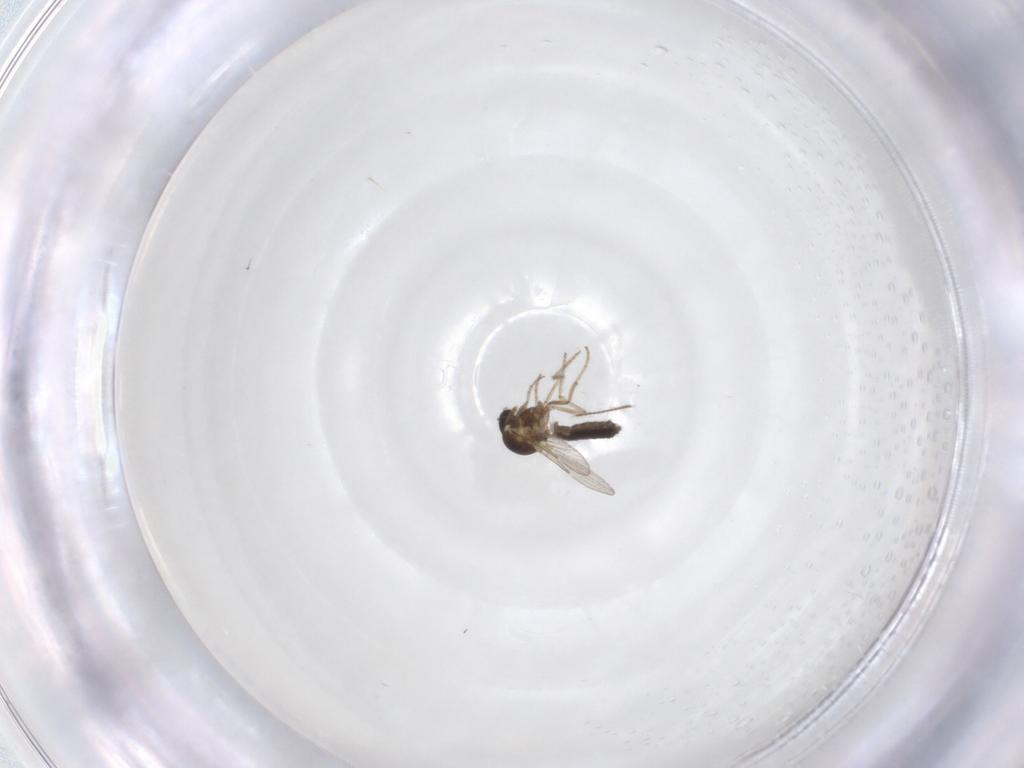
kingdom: Animalia
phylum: Arthropoda
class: Insecta
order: Diptera
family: Ceratopogonidae
